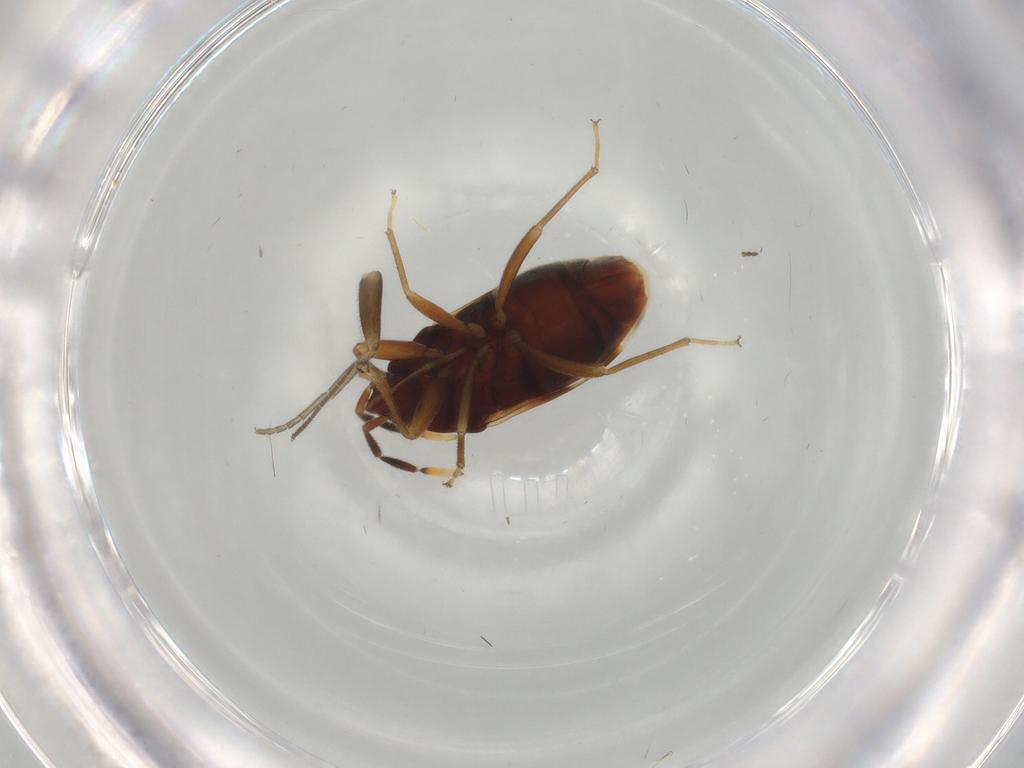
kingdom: Animalia
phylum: Arthropoda
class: Insecta
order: Hemiptera
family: Rhyparochromidae
